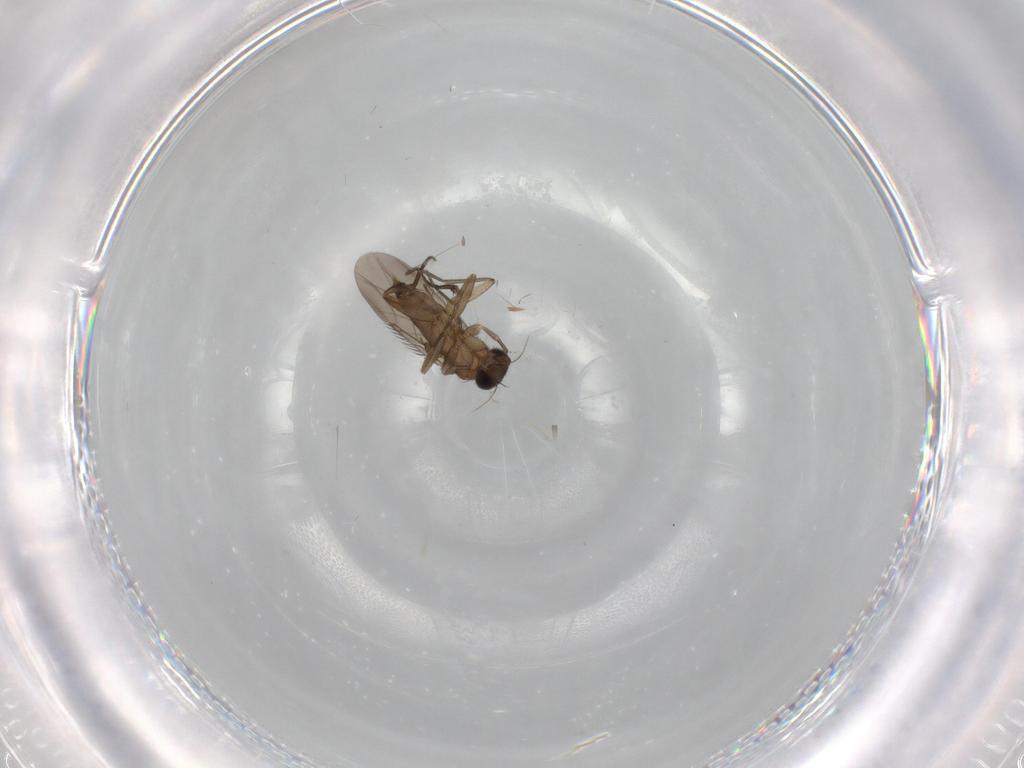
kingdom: Animalia
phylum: Arthropoda
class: Insecta
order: Diptera
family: Phoridae
